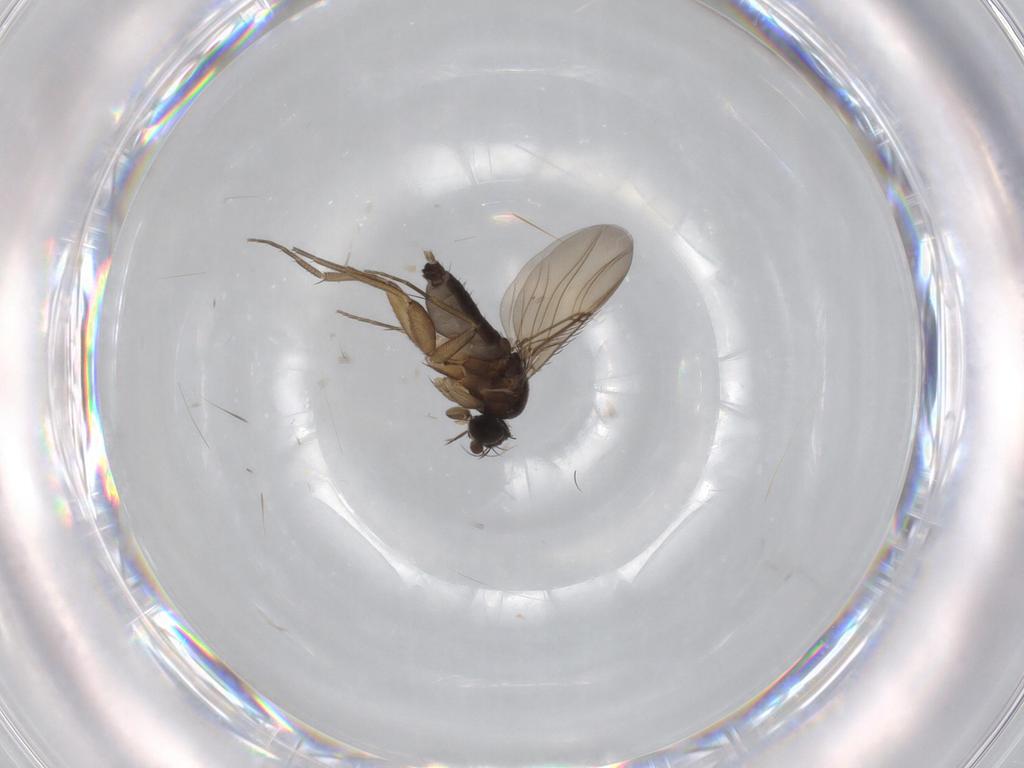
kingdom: Animalia
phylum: Arthropoda
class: Insecta
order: Diptera
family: Phoridae
